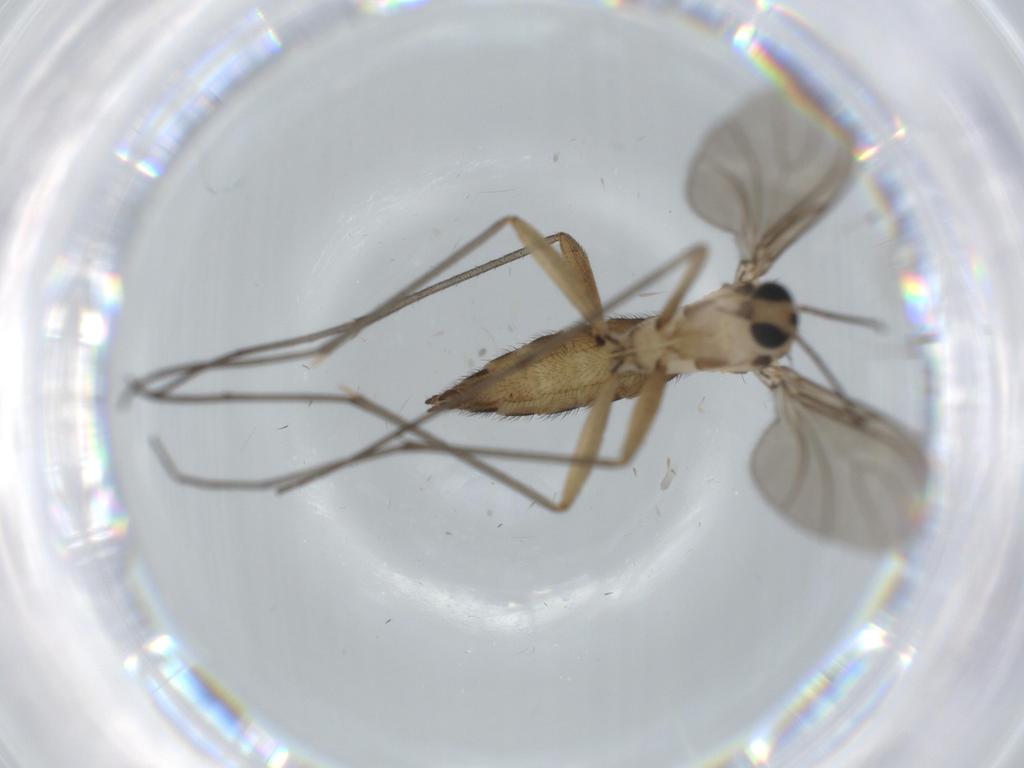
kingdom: Animalia
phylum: Arthropoda
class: Insecta
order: Diptera
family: Sciaridae
